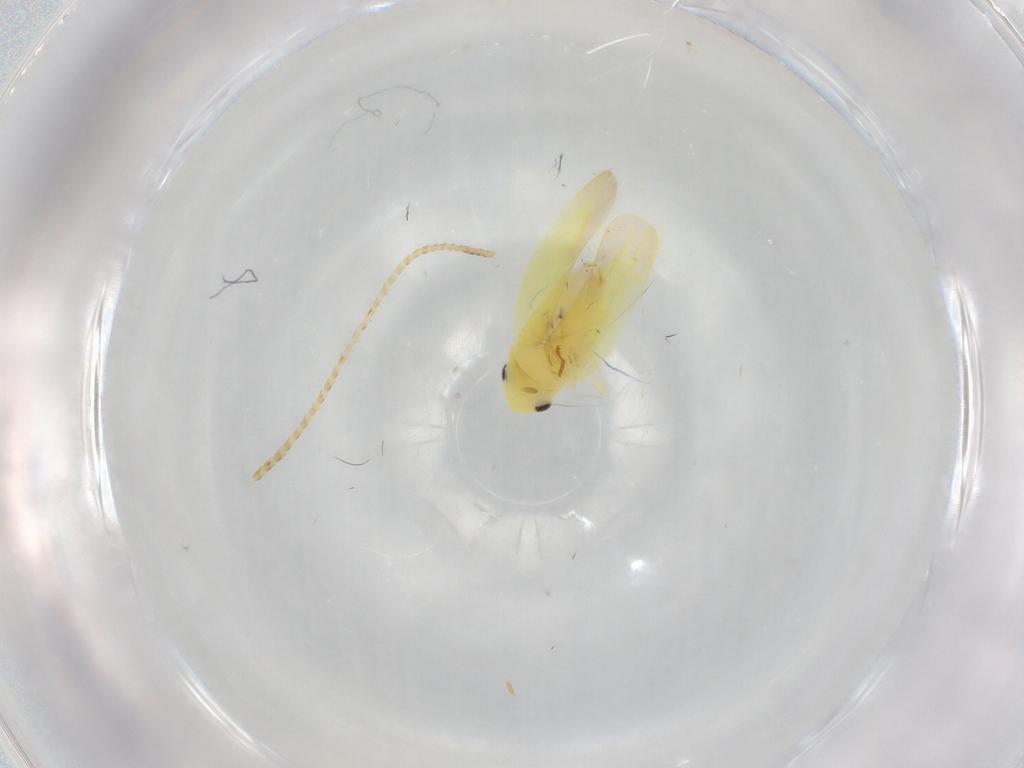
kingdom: Animalia
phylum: Arthropoda
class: Insecta
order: Hemiptera
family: Cicadellidae
